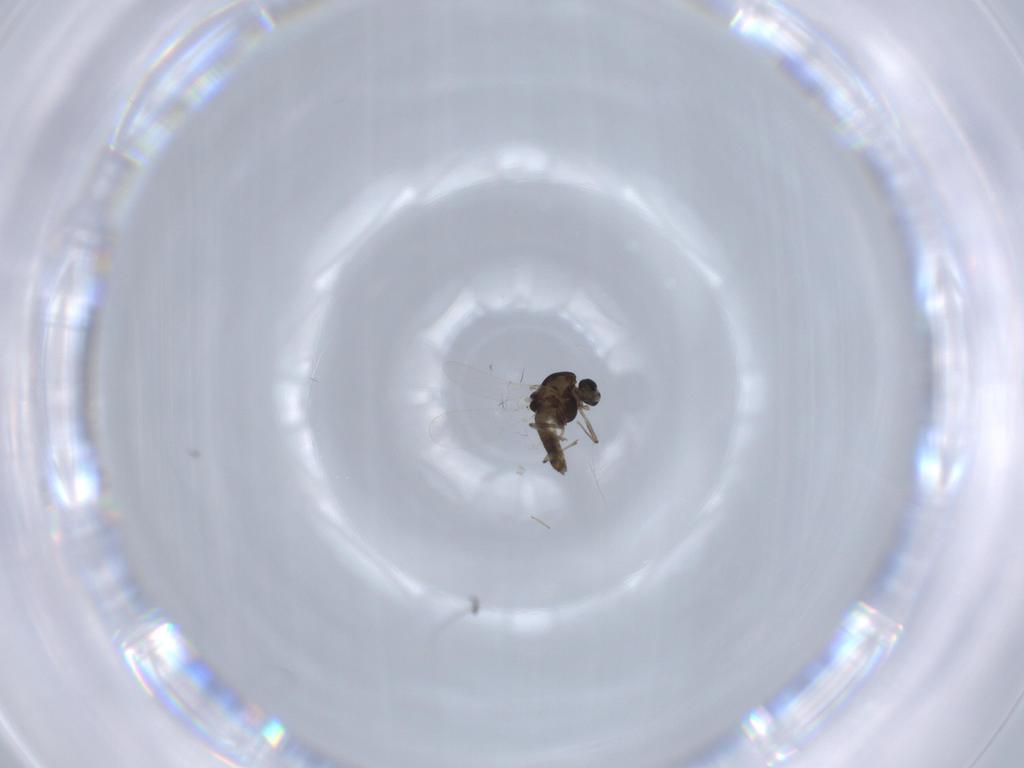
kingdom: Animalia
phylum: Arthropoda
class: Insecta
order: Diptera
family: Chironomidae
